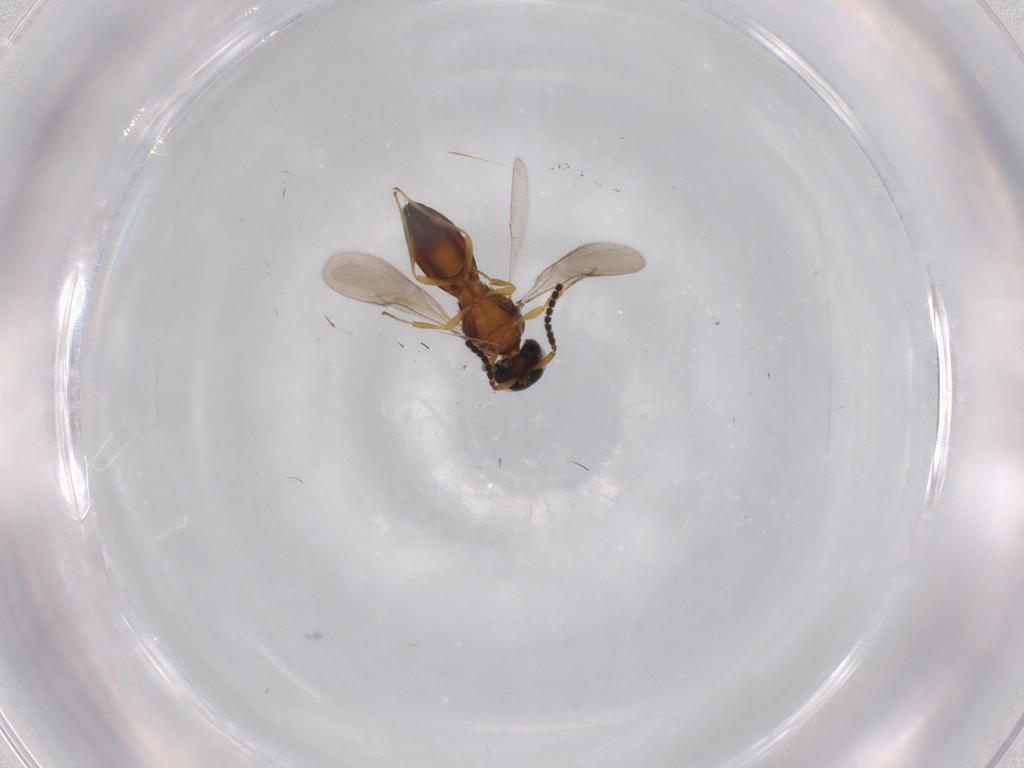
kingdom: Animalia
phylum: Arthropoda
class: Insecta
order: Hymenoptera
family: Scelionidae
